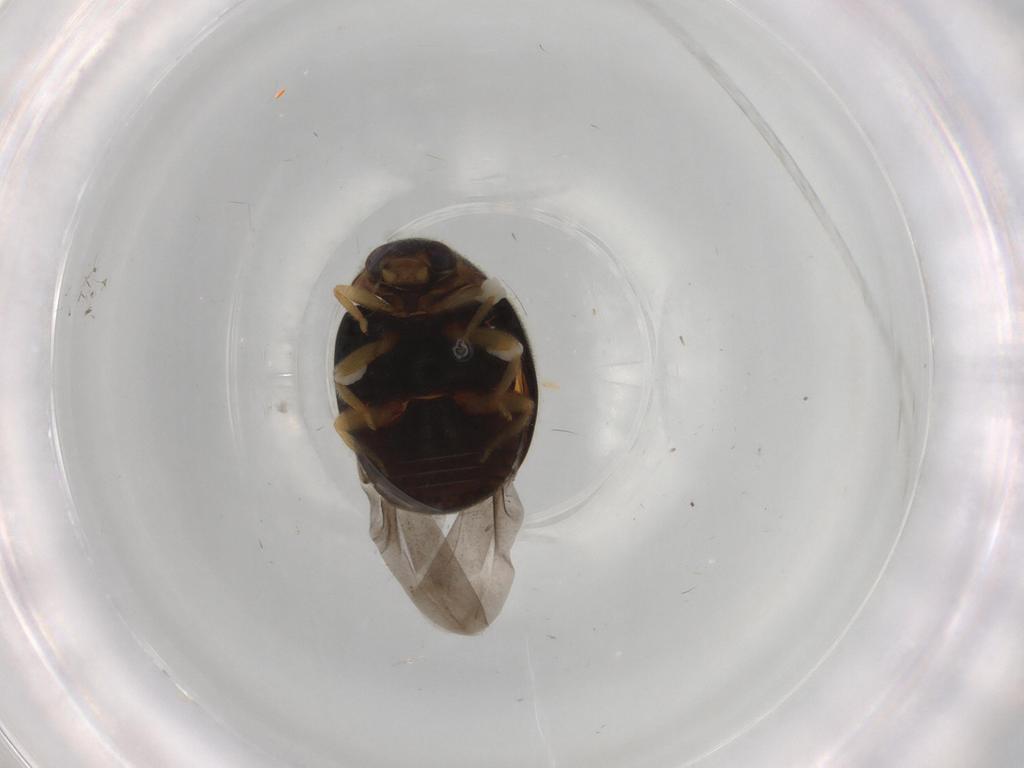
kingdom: Animalia
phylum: Arthropoda
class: Insecta
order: Coleoptera
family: Coccinellidae
